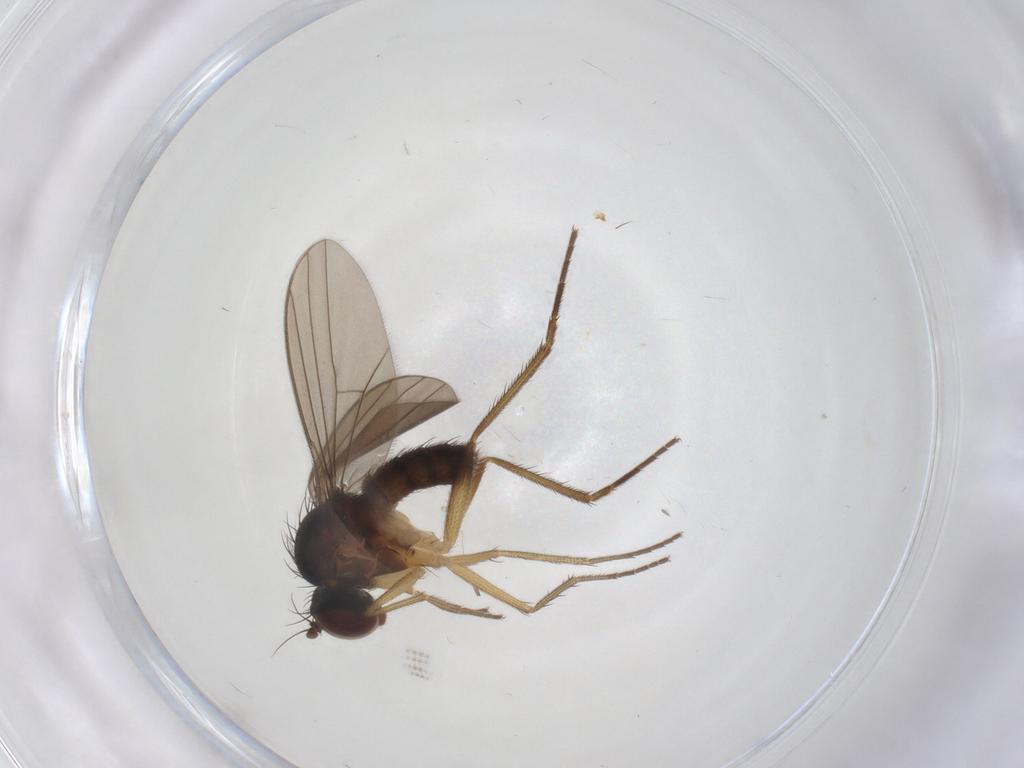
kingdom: Animalia
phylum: Arthropoda
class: Insecta
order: Diptera
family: Dolichopodidae
